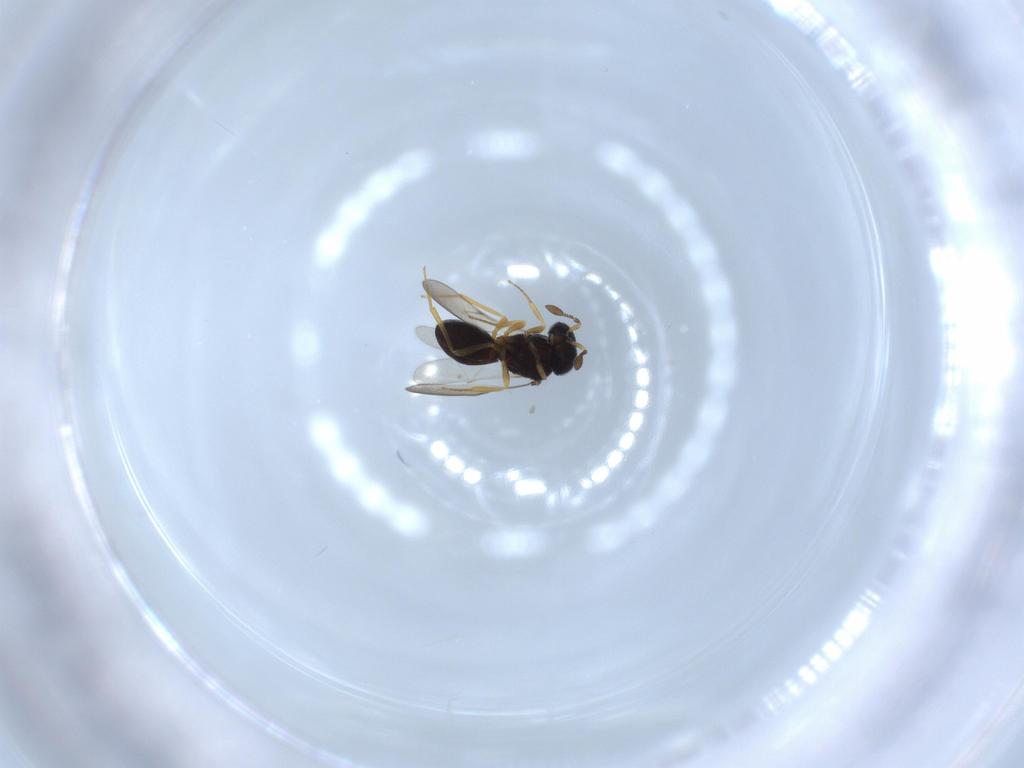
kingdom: Animalia
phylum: Arthropoda
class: Insecta
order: Hymenoptera
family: Scelionidae
